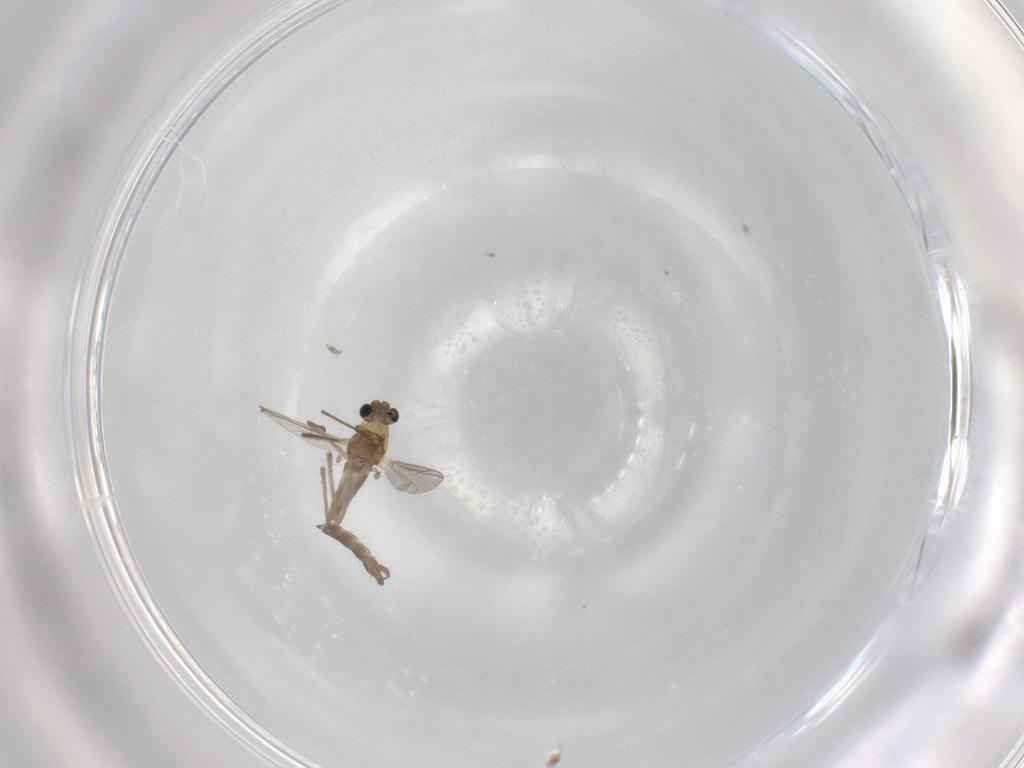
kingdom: Animalia
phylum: Arthropoda
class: Insecta
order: Diptera
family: Chironomidae
